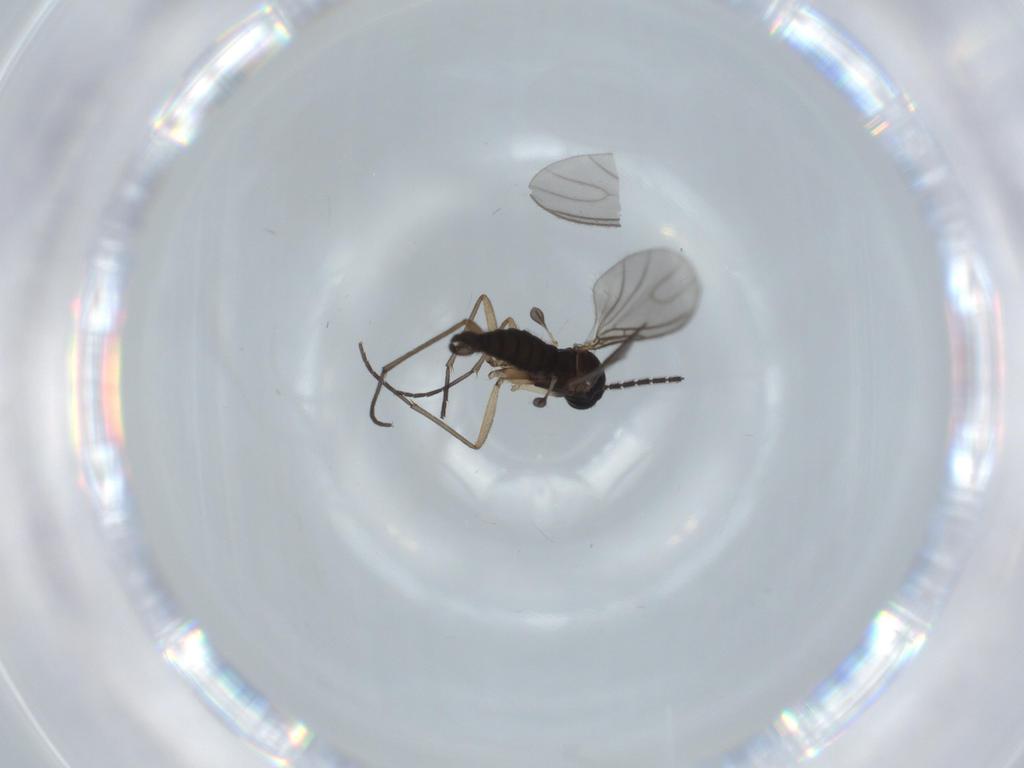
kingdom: Animalia
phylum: Arthropoda
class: Insecta
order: Diptera
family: Sciaridae
